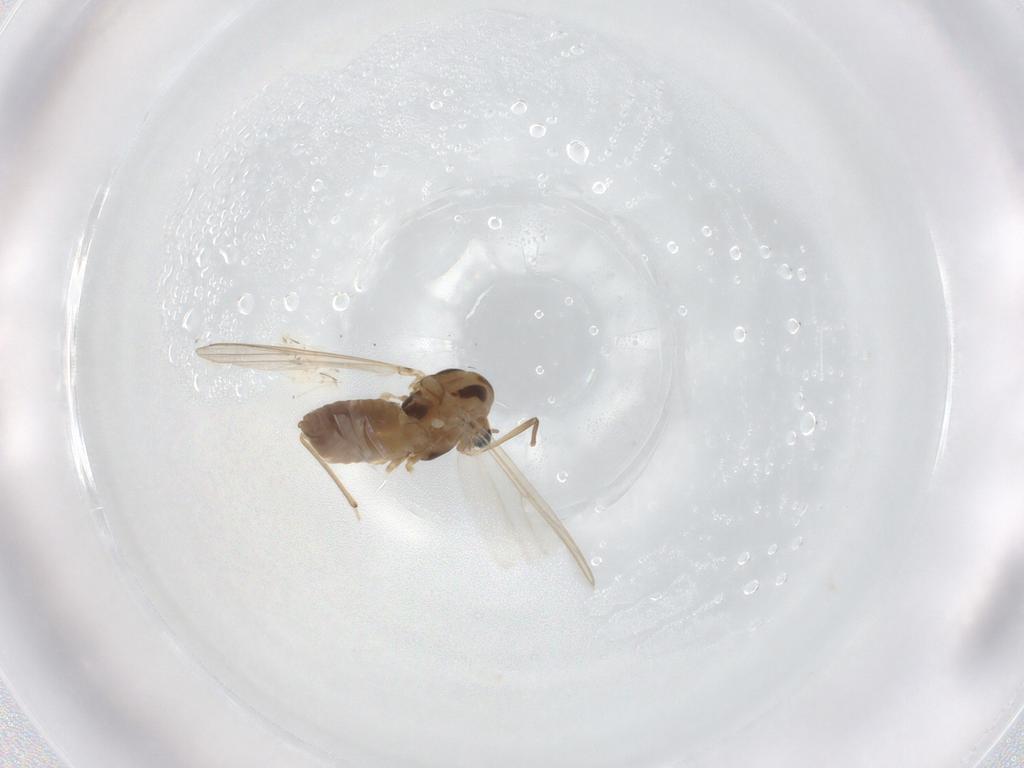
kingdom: Animalia
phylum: Arthropoda
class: Insecta
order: Diptera
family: Chironomidae
